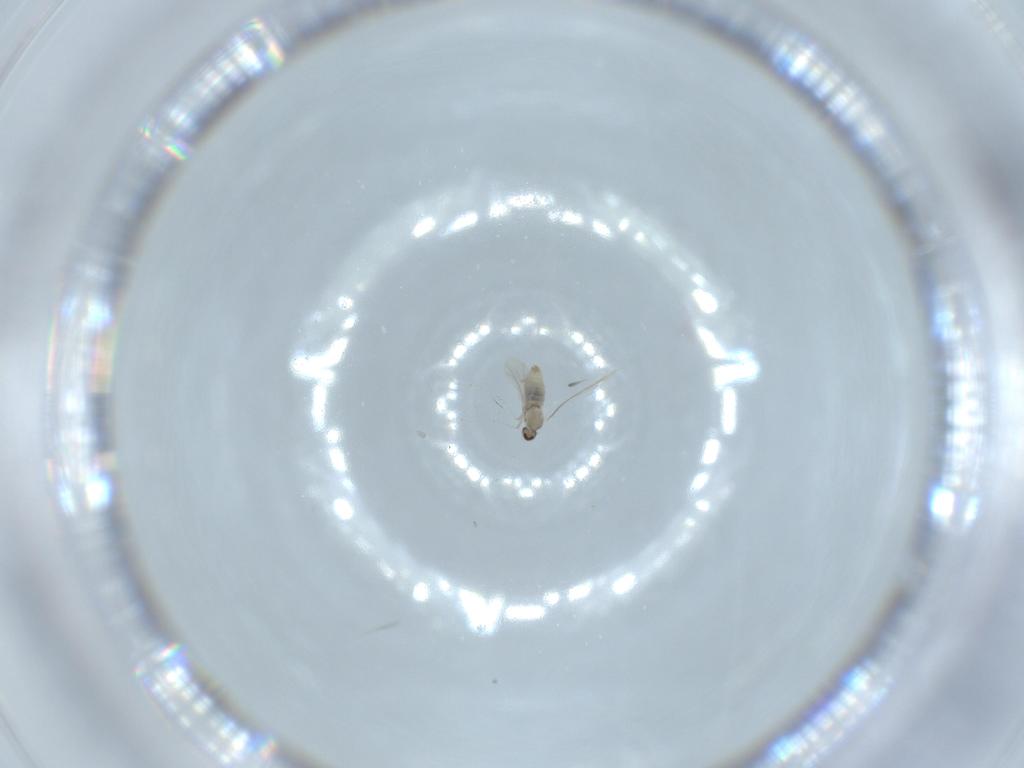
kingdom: Animalia
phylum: Arthropoda
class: Insecta
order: Diptera
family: Cecidomyiidae
